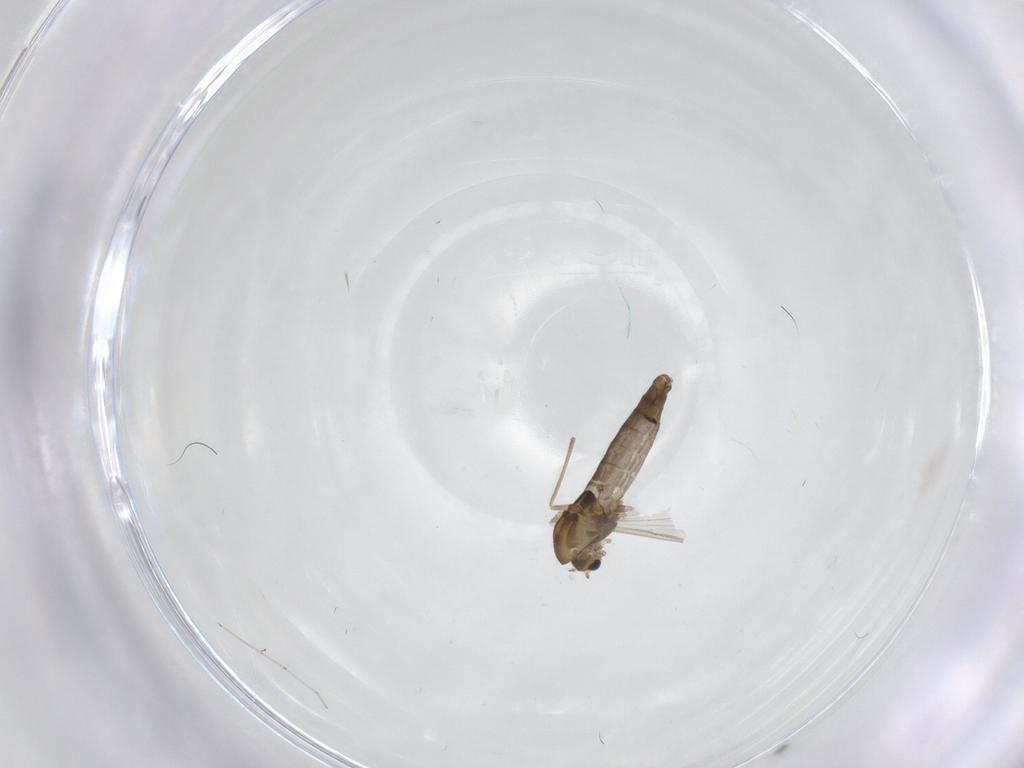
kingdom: Animalia
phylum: Arthropoda
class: Insecta
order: Diptera
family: Chironomidae
